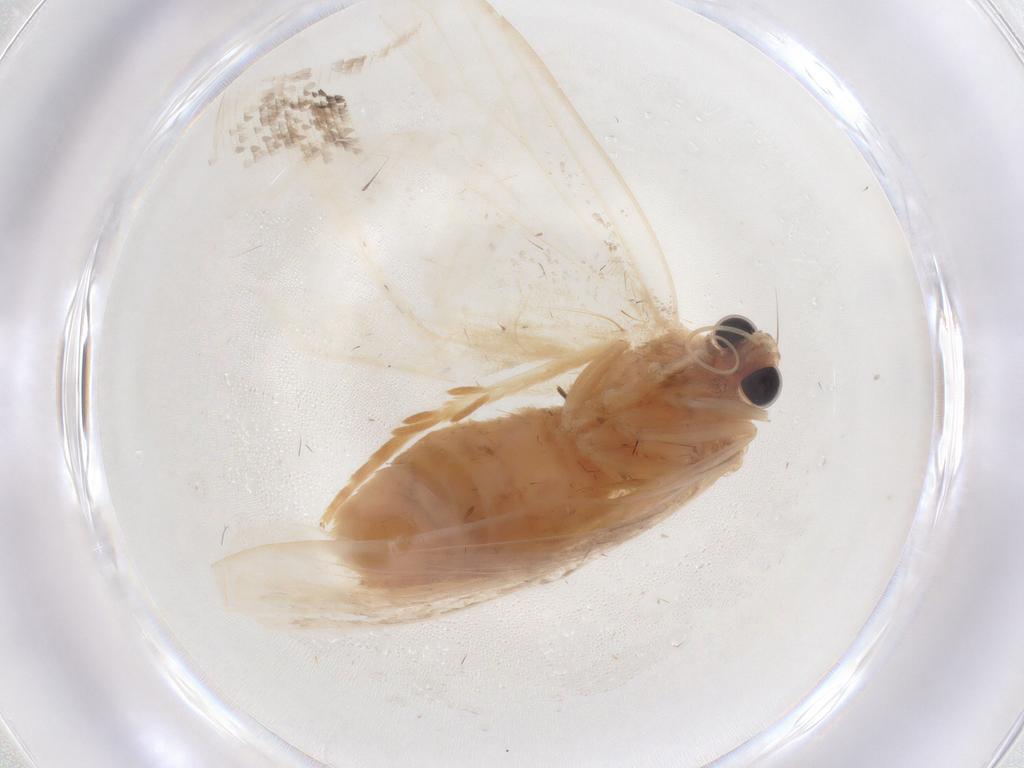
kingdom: Animalia
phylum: Arthropoda
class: Insecta
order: Lepidoptera
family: Erebidae
